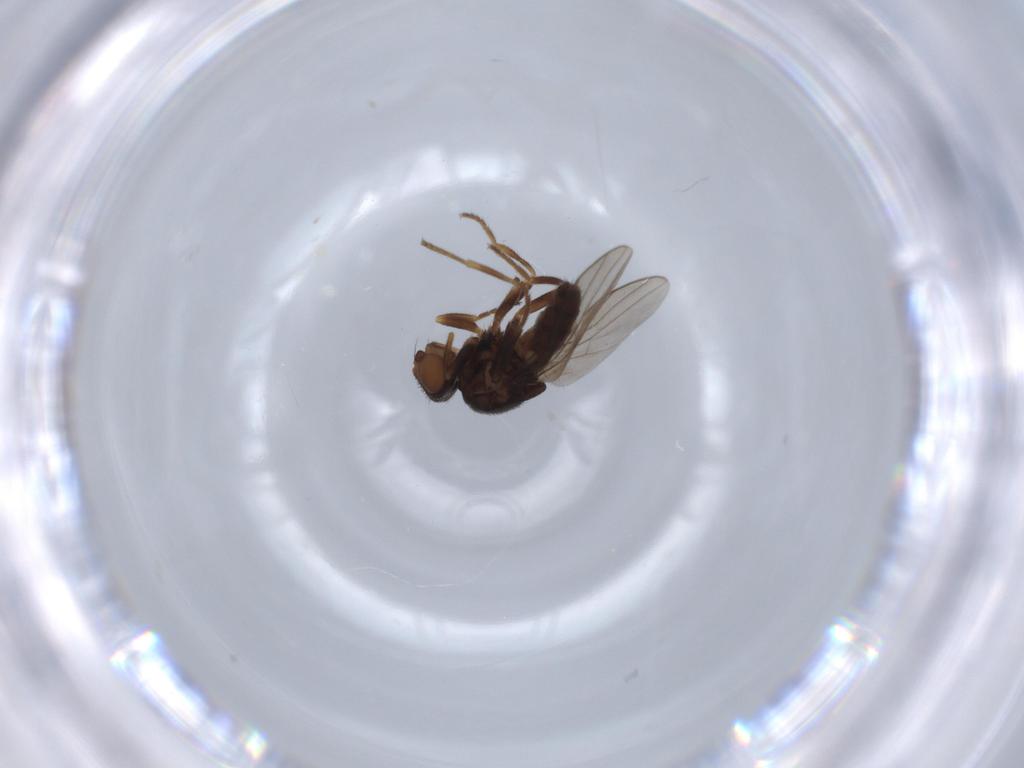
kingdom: Animalia
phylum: Arthropoda
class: Insecta
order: Diptera
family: Chloropidae
